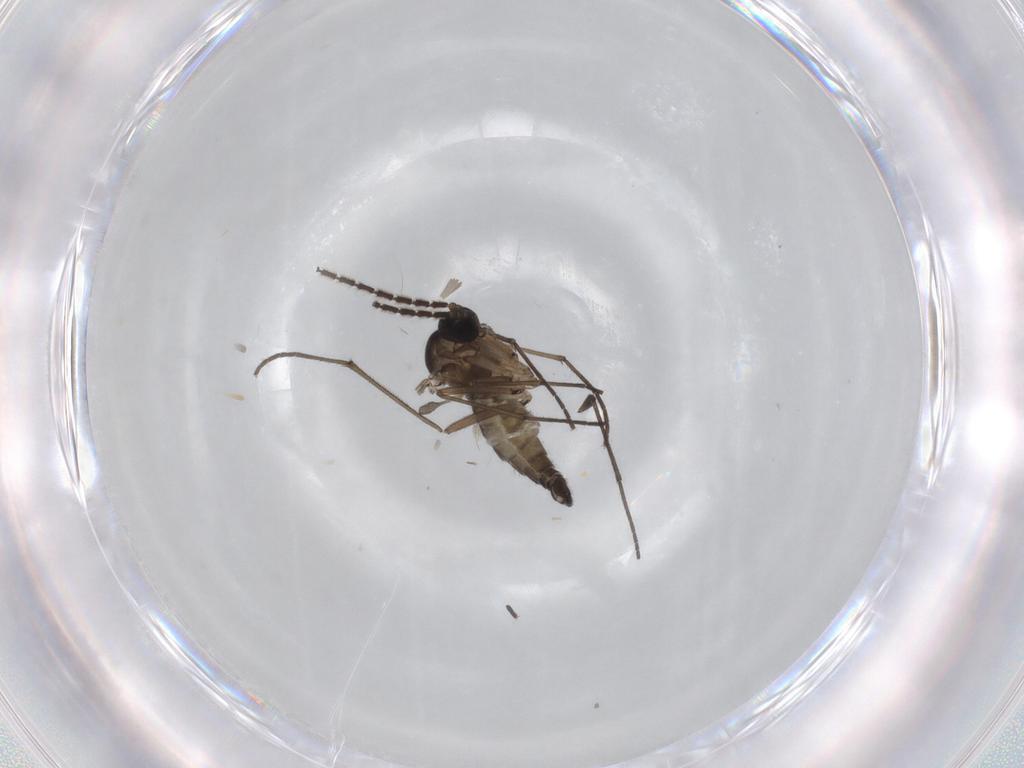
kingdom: Animalia
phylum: Arthropoda
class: Insecta
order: Diptera
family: Sciaridae
